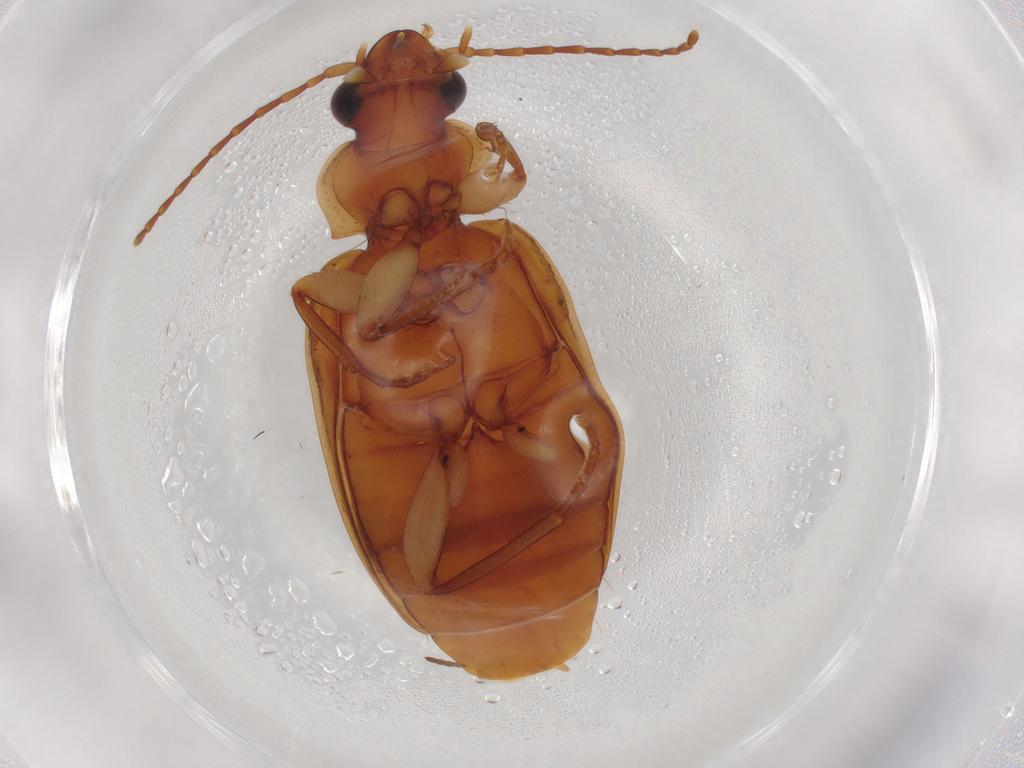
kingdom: Animalia
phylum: Arthropoda
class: Insecta
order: Coleoptera
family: Carabidae
